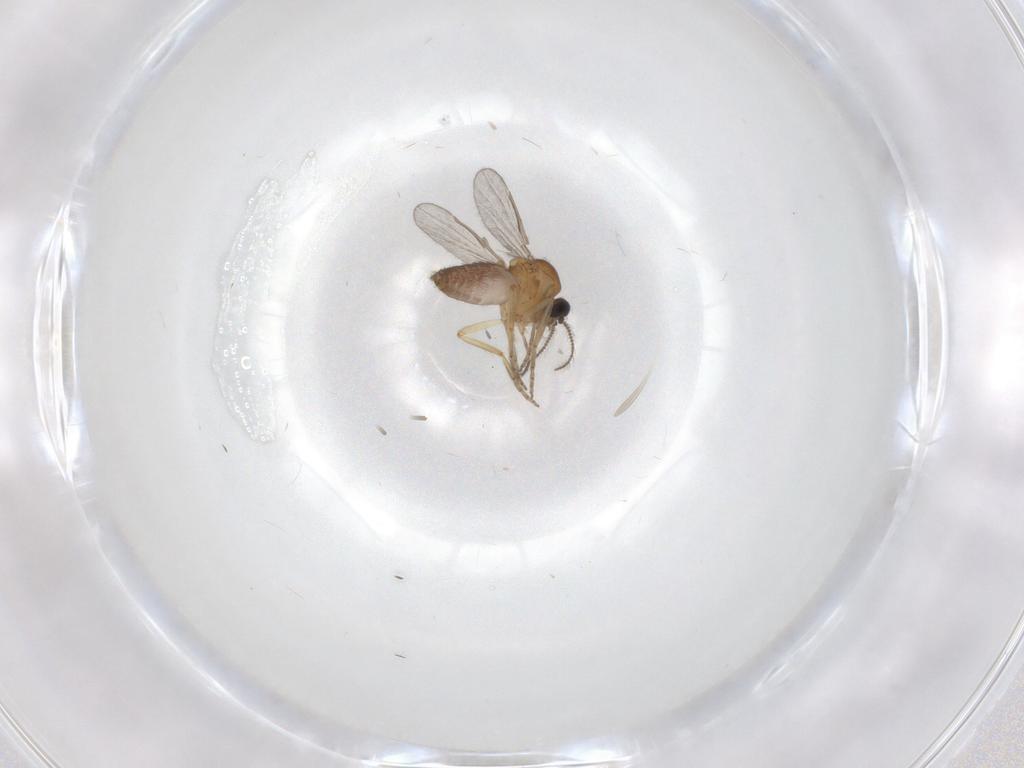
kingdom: Animalia
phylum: Arthropoda
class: Insecta
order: Diptera
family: Ceratopogonidae
